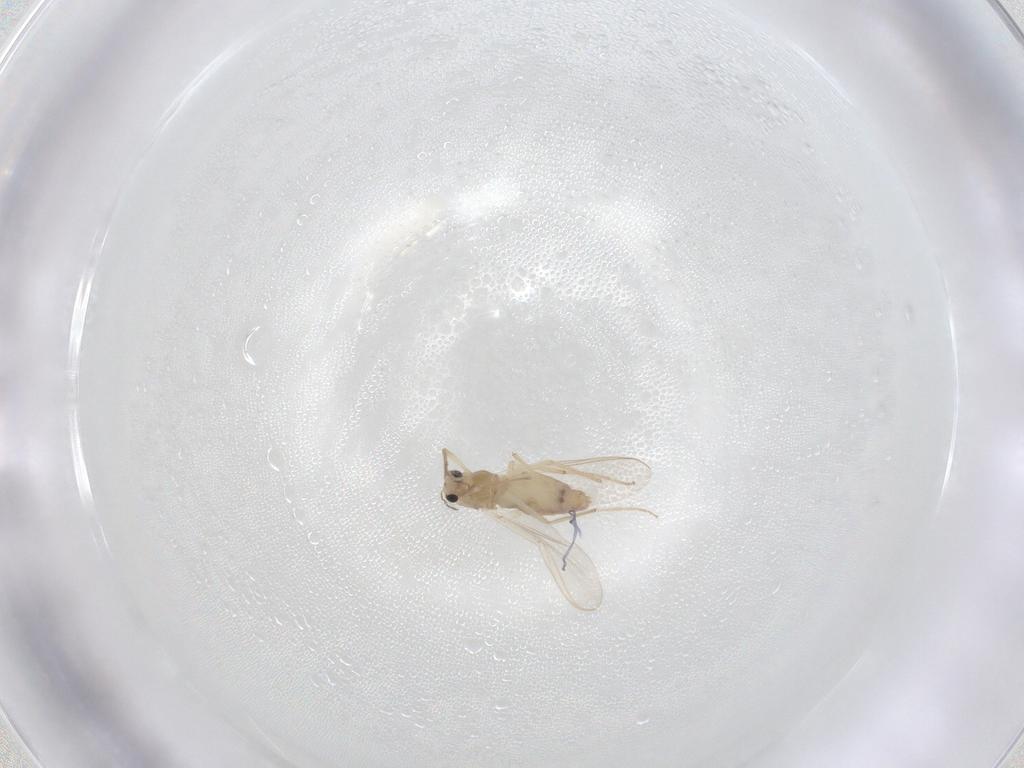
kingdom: Animalia
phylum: Arthropoda
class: Insecta
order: Diptera
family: Chironomidae
